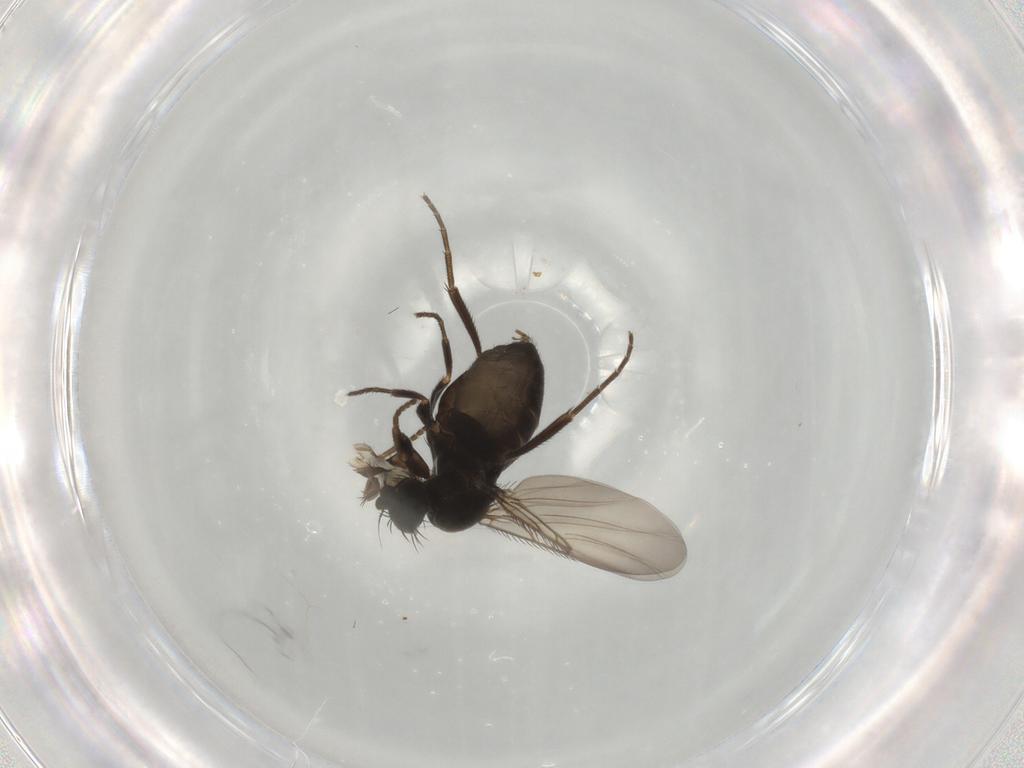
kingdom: Animalia
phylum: Arthropoda
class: Insecta
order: Diptera
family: Phoridae
